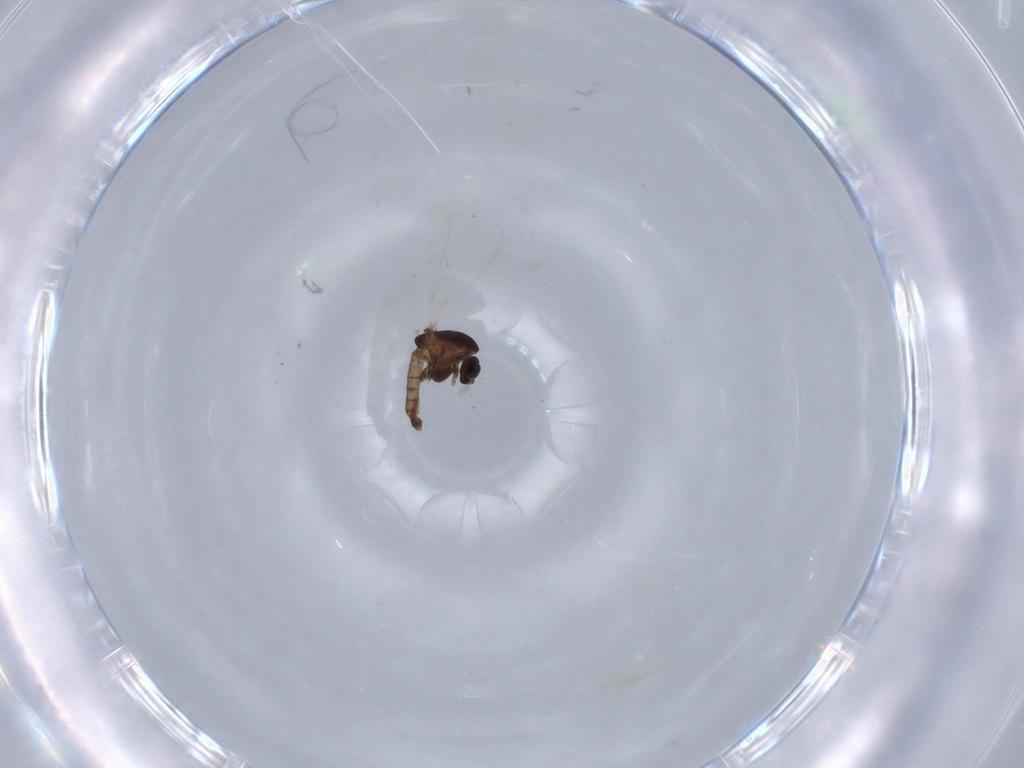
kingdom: Animalia
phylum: Arthropoda
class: Insecta
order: Diptera
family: Chironomidae
